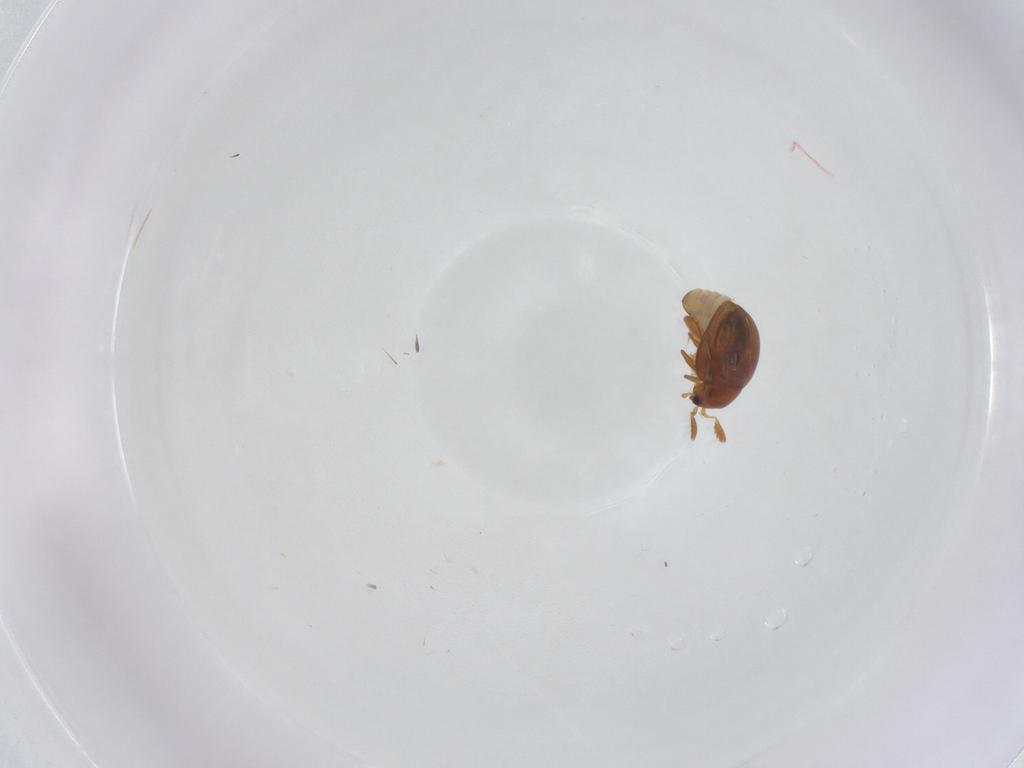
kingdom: Animalia
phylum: Arthropoda
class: Insecta
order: Coleoptera
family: Chrysomelidae
